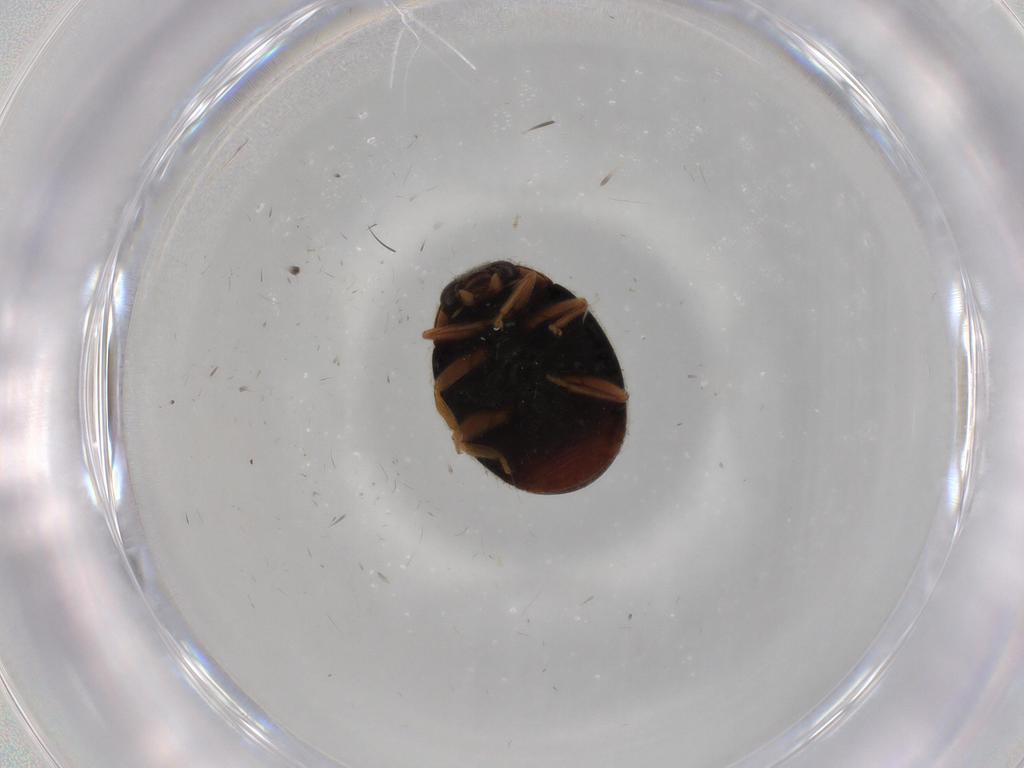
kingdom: Animalia
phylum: Arthropoda
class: Insecta
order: Coleoptera
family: Coccinellidae
